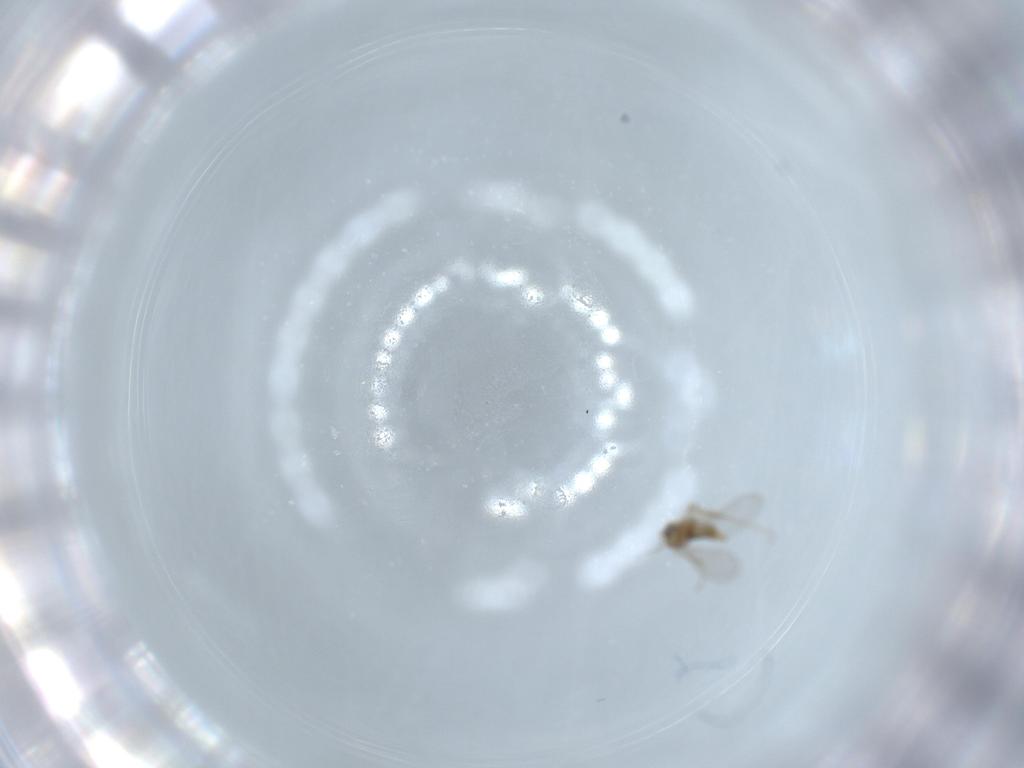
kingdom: Animalia
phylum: Arthropoda
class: Insecta
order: Diptera
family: Cecidomyiidae
